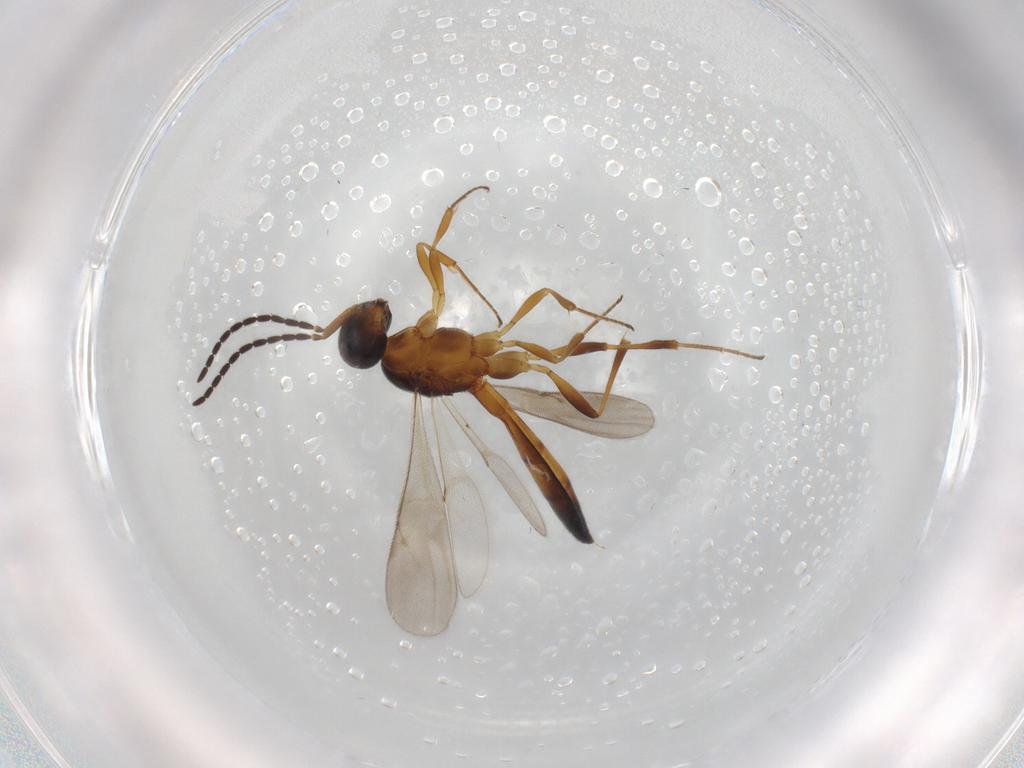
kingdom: Animalia
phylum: Arthropoda
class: Insecta
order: Hymenoptera
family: Scelionidae
